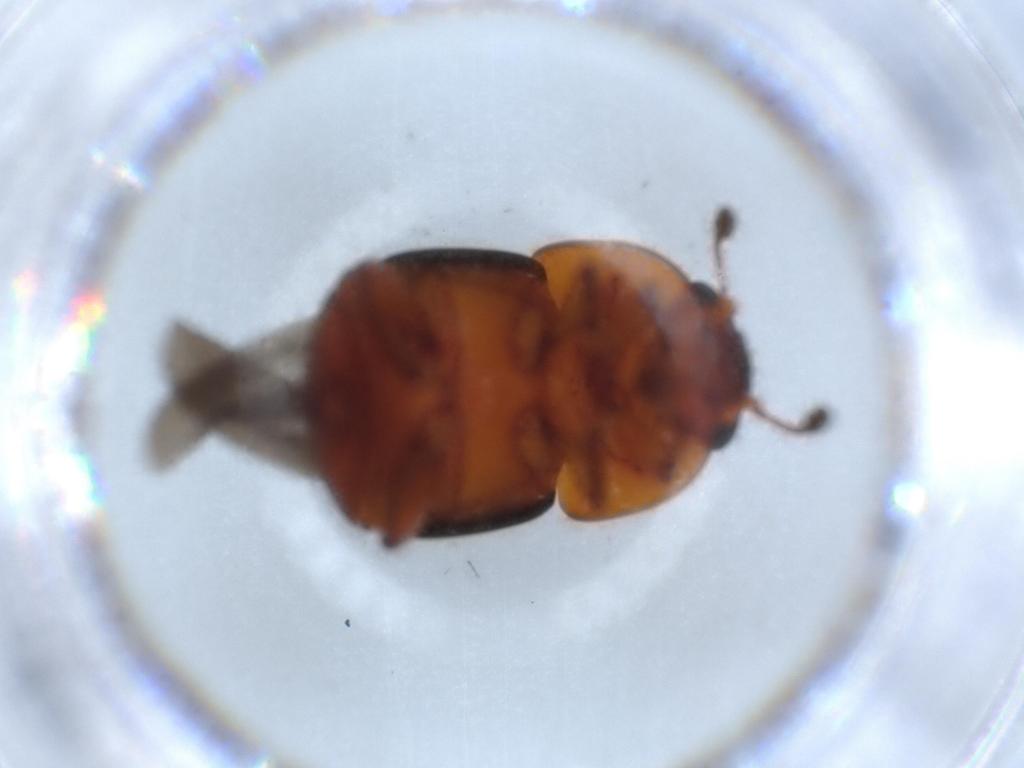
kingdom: Animalia
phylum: Arthropoda
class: Insecta
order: Coleoptera
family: Nitidulidae
